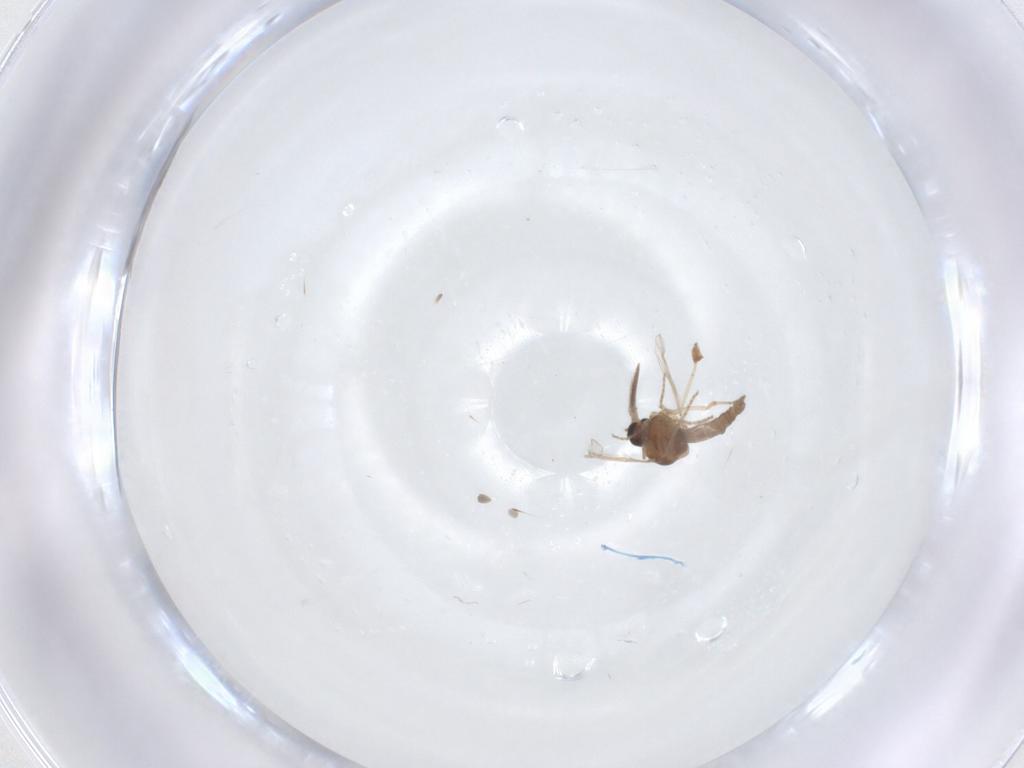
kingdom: Animalia
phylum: Arthropoda
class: Insecta
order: Diptera
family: Ceratopogonidae
